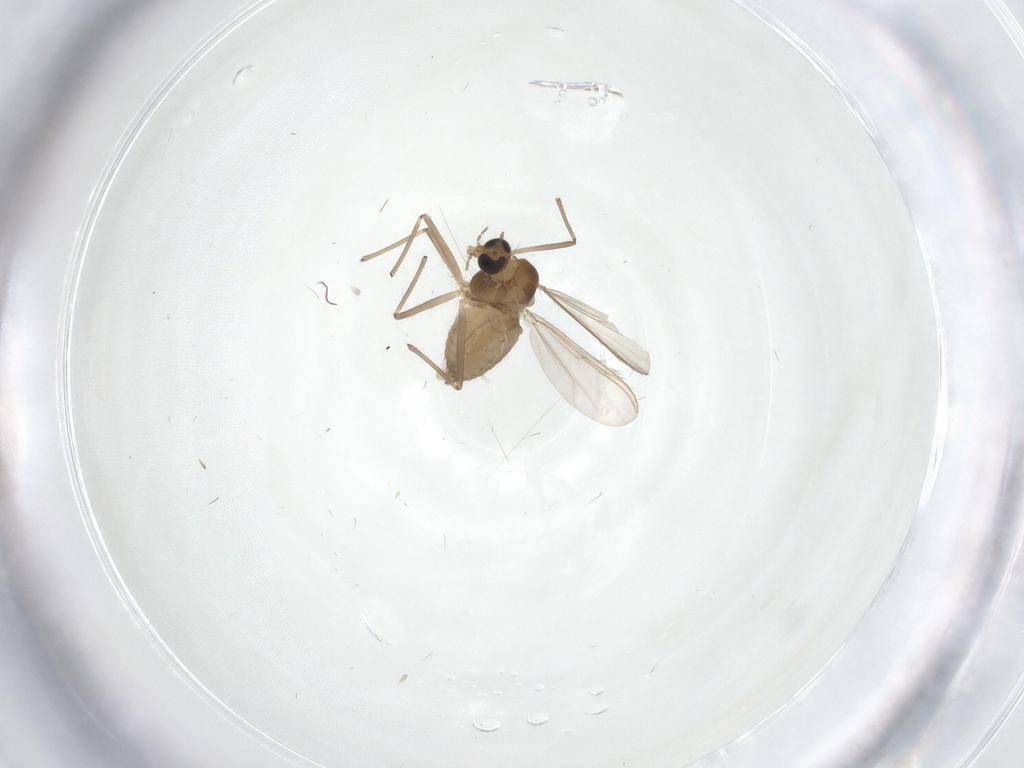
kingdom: Animalia
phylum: Arthropoda
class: Insecta
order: Diptera
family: Chironomidae
